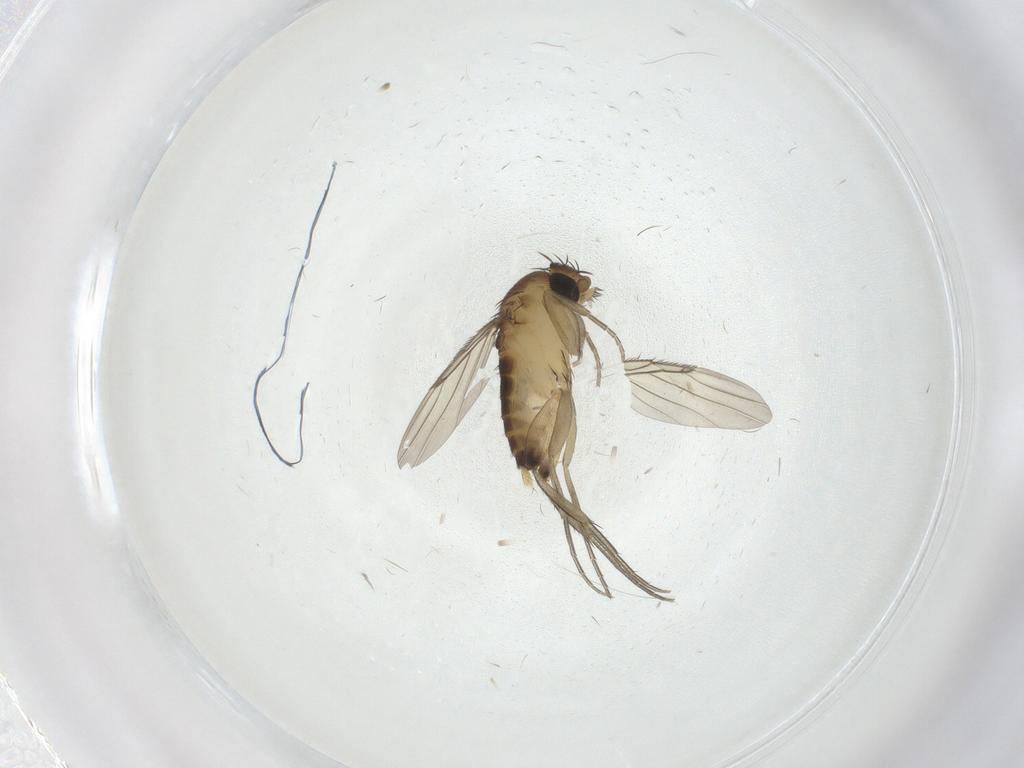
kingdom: Animalia
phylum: Arthropoda
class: Insecta
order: Diptera
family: Phoridae
